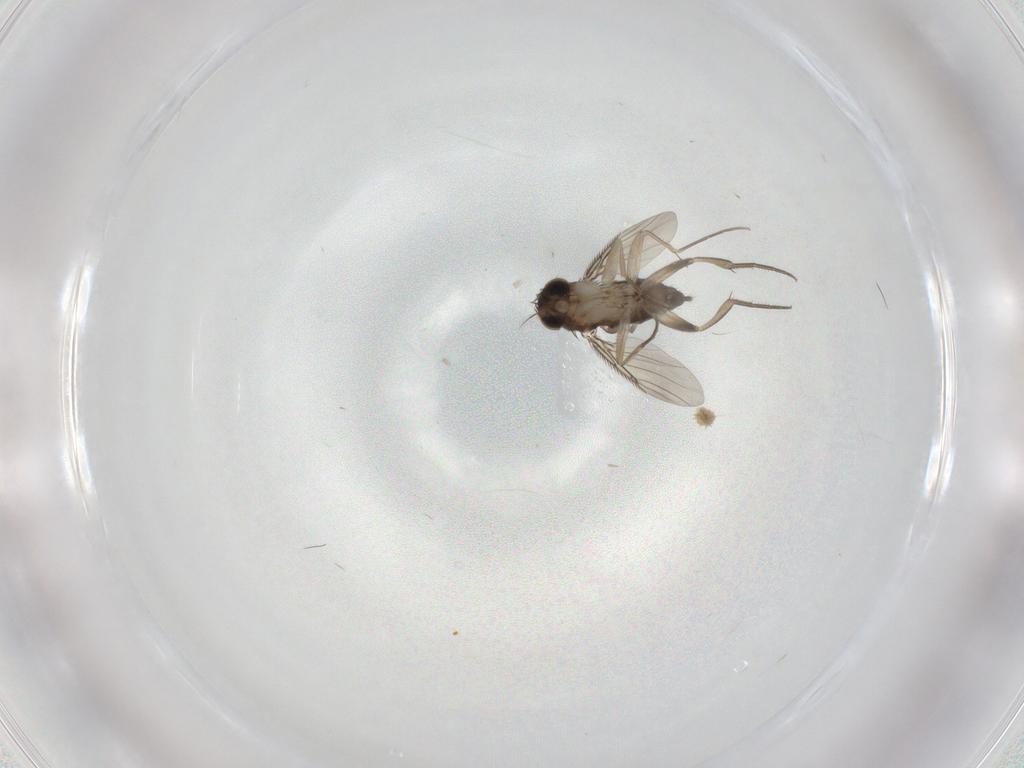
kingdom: Animalia
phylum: Arthropoda
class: Insecta
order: Diptera
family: Phoridae
